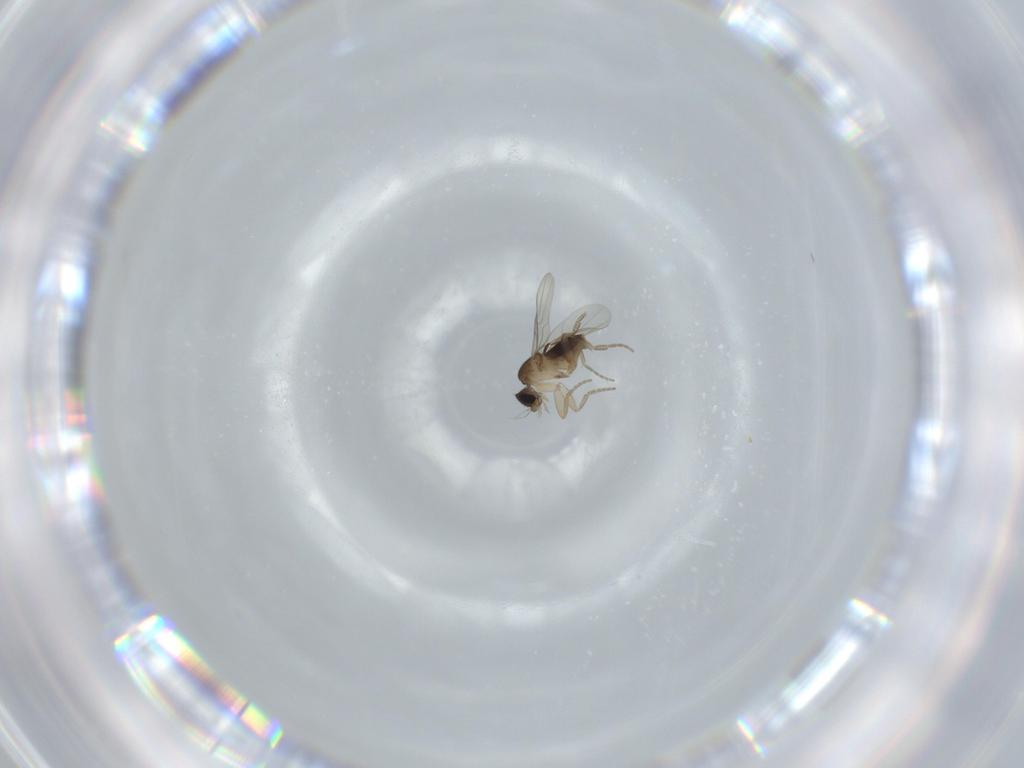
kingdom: Animalia
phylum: Arthropoda
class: Insecta
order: Diptera
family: Phoridae
